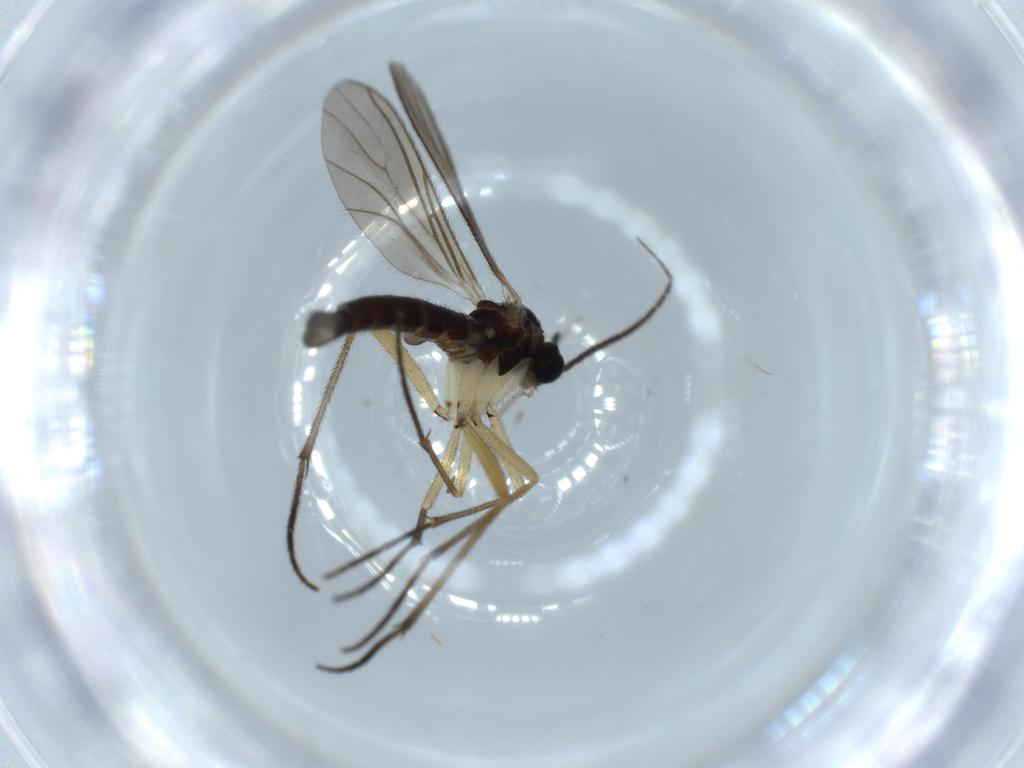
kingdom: Animalia
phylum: Arthropoda
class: Insecta
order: Diptera
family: Sciaridae
